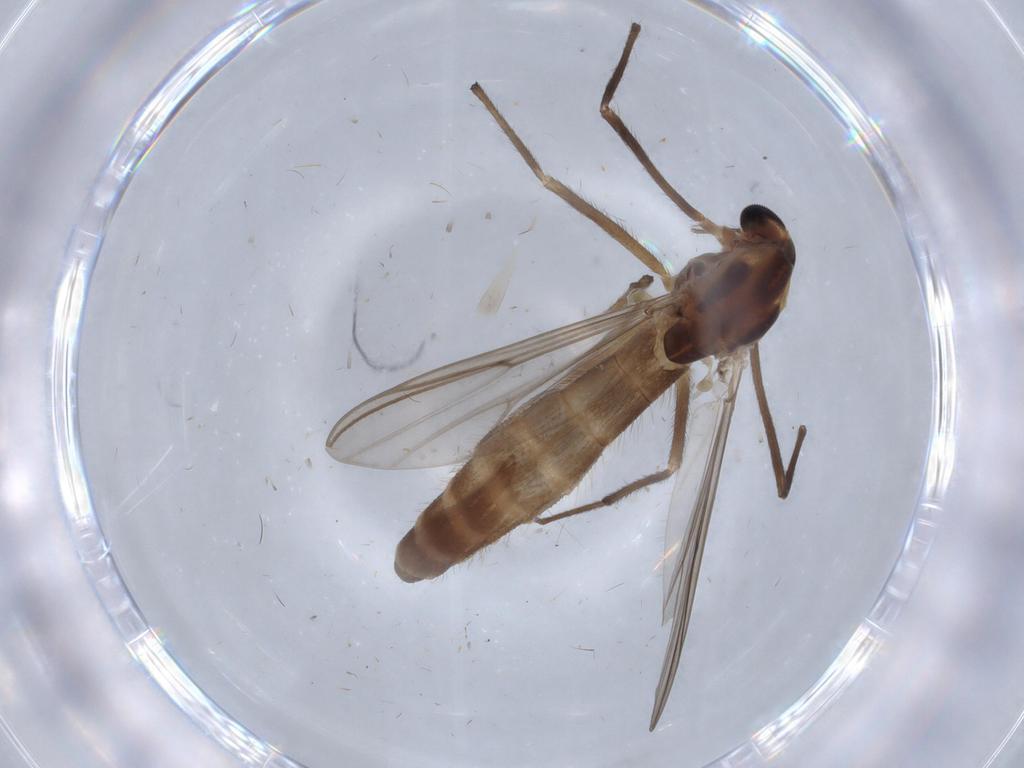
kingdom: Animalia
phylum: Arthropoda
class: Insecta
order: Diptera
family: Chironomidae
